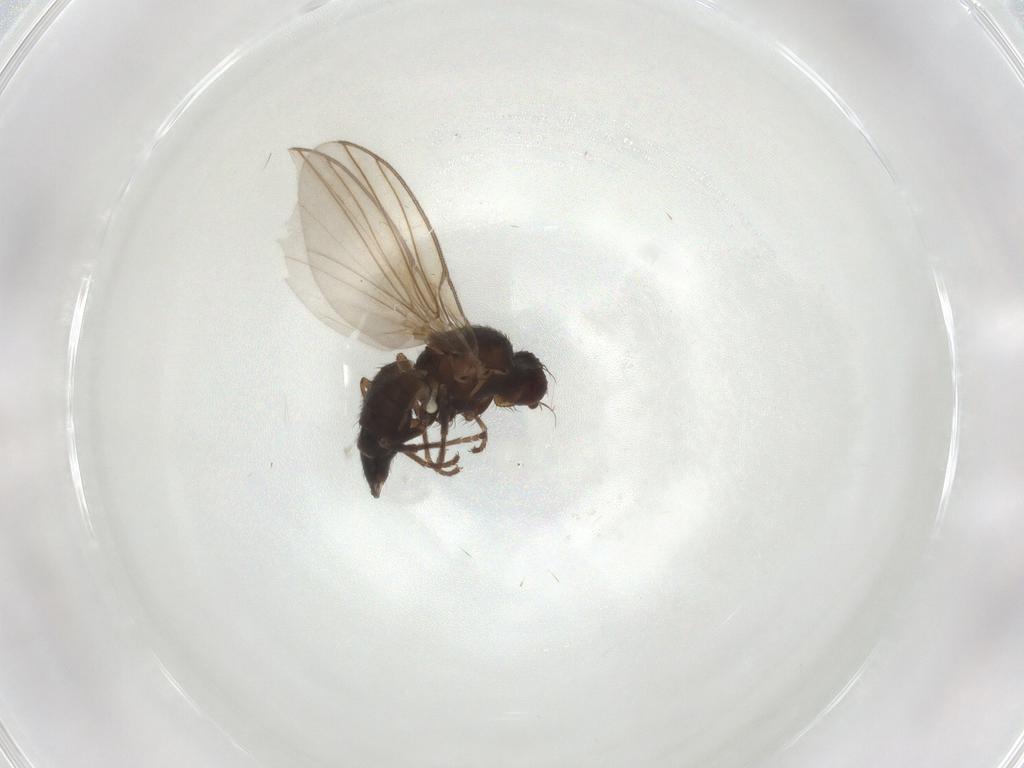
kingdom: Animalia
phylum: Arthropoda
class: Insecta
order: Diptera
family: Agromyzidae
